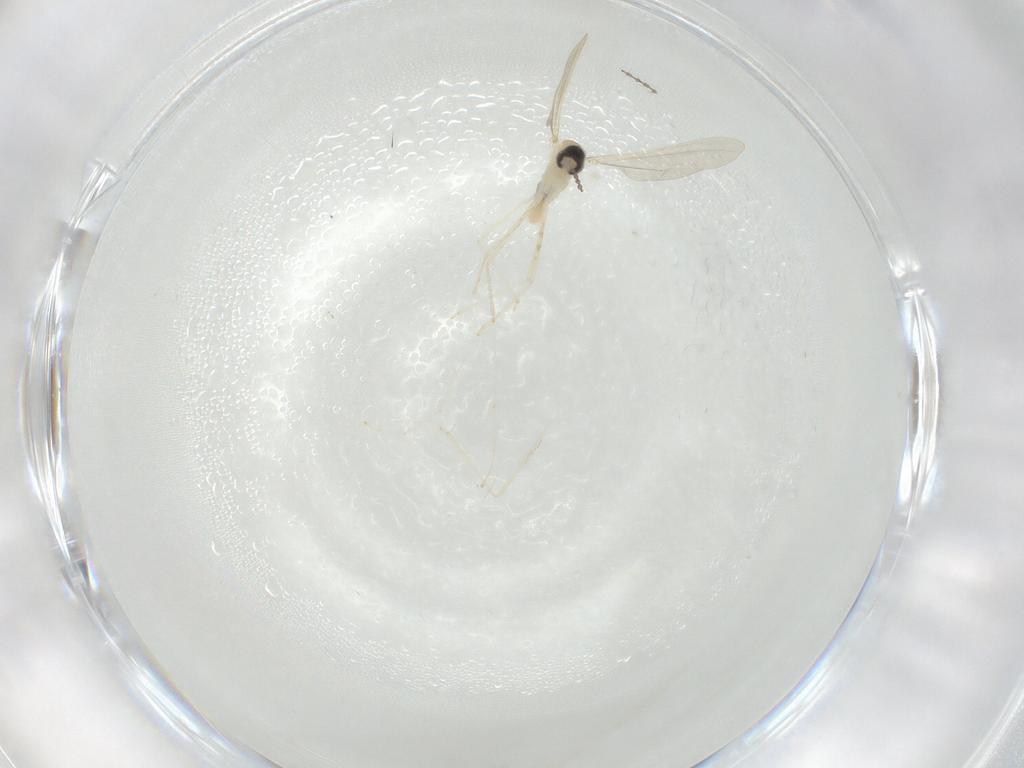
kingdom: Animalia
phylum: Arthropoda
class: Insecta
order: Diptera
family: Cecidomyiidae
